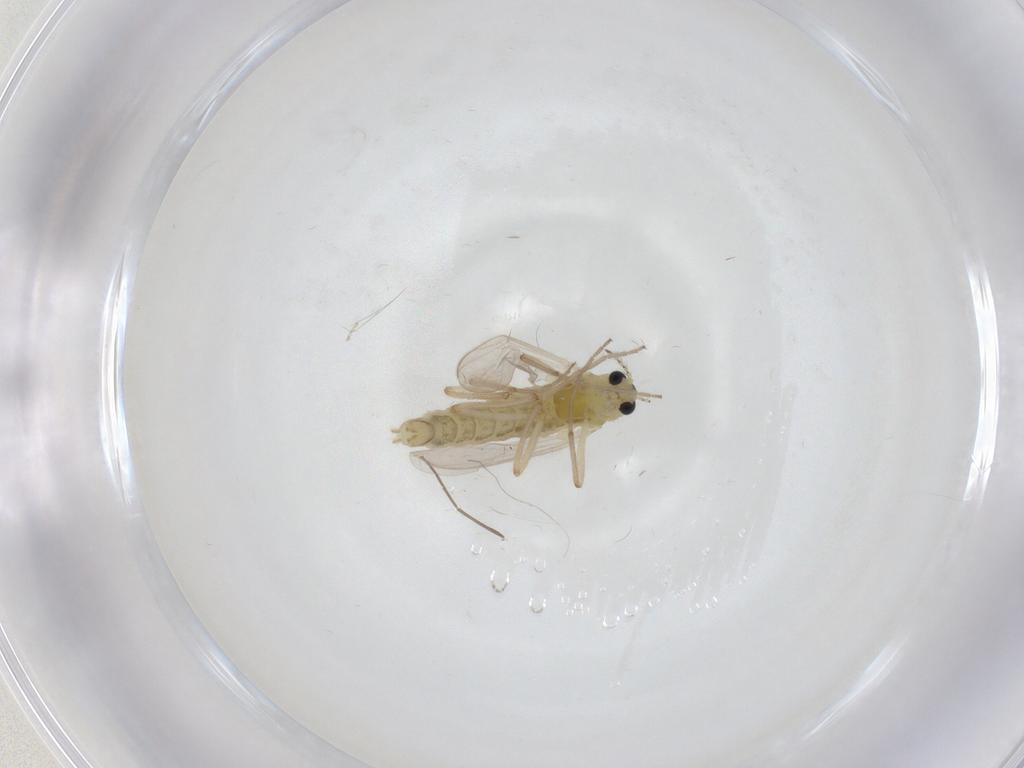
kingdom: Animalia
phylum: Arthropoda
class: Insecta
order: Diptera
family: Chironomidae
